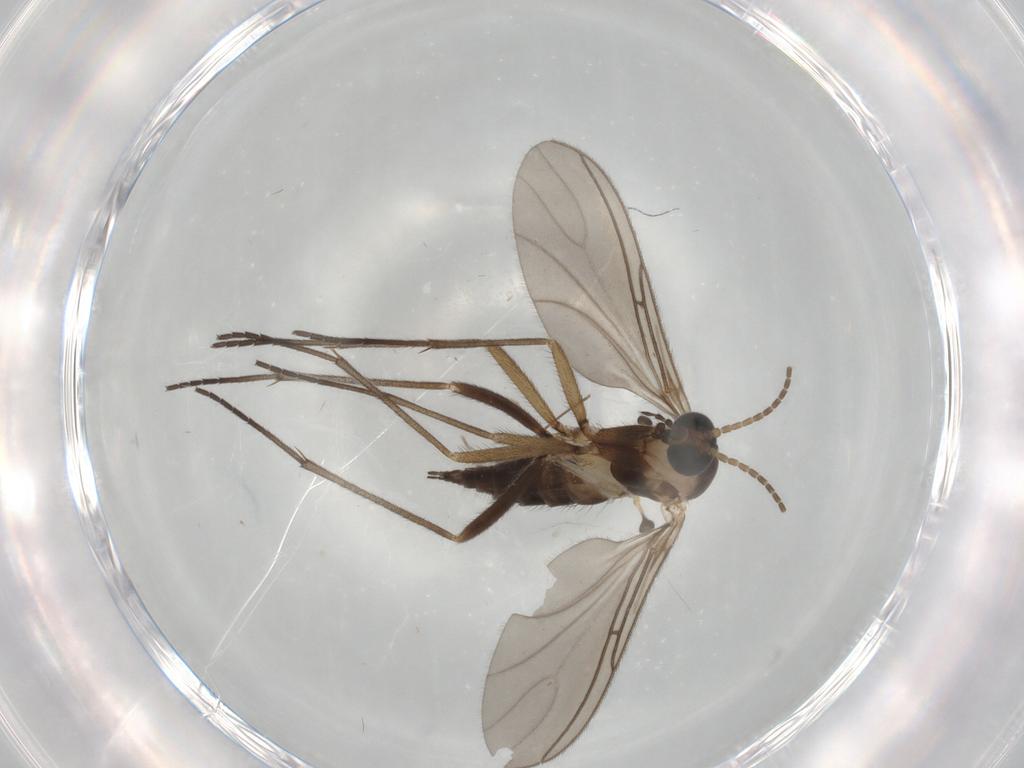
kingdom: Animalia
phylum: Arthropoda
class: Insecta
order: Diptera
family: Sciaridae
